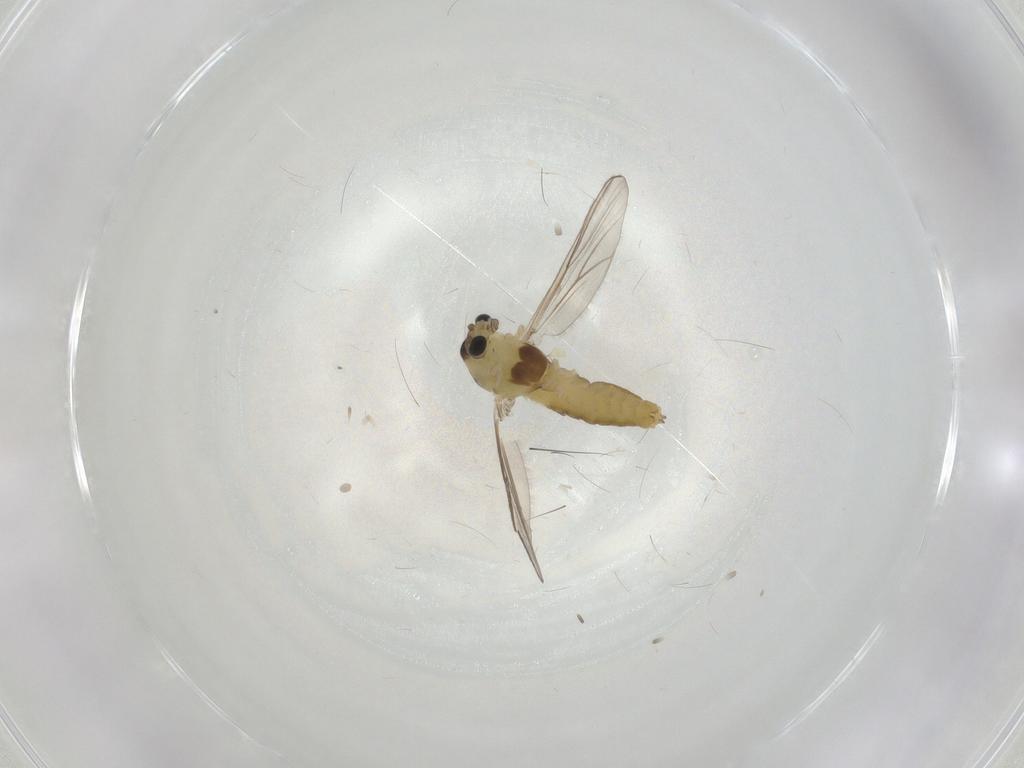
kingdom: Animalia
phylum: Arthropoda
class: Insecta
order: Diptera
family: Chironomidae
